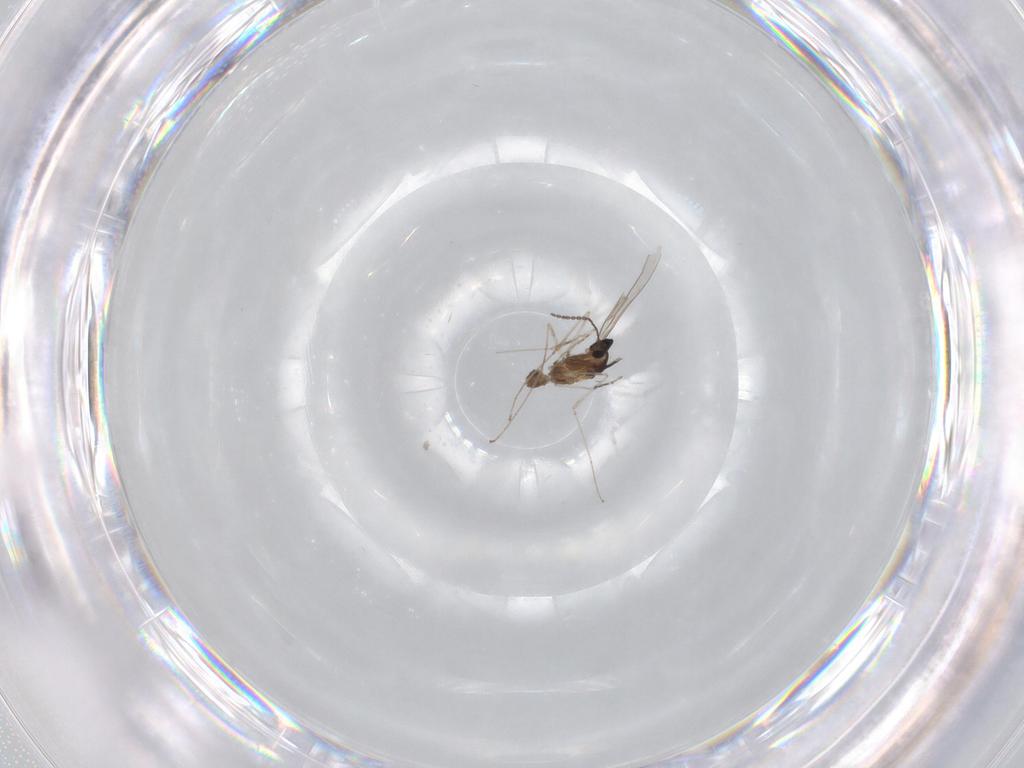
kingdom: Animalia
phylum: Arthropoda
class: Insecta
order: Diptera
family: Cecidomyiidae
